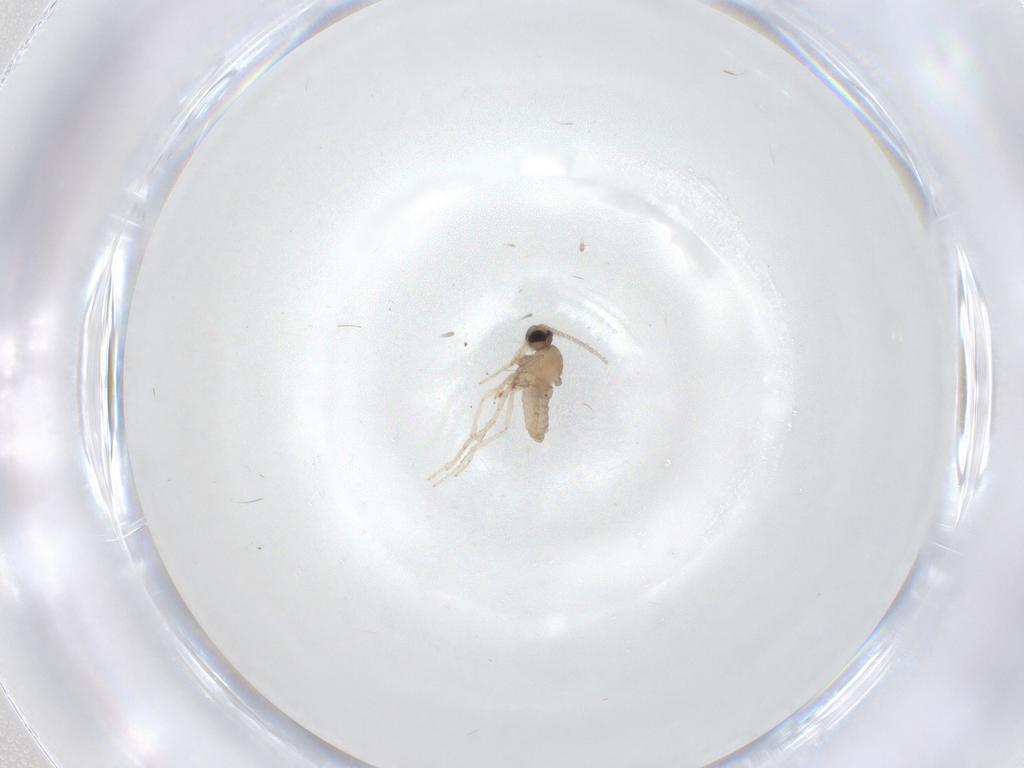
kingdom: Animalia
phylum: Arthropoda
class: Insecta
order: Diptera
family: Cecidomyiidae
